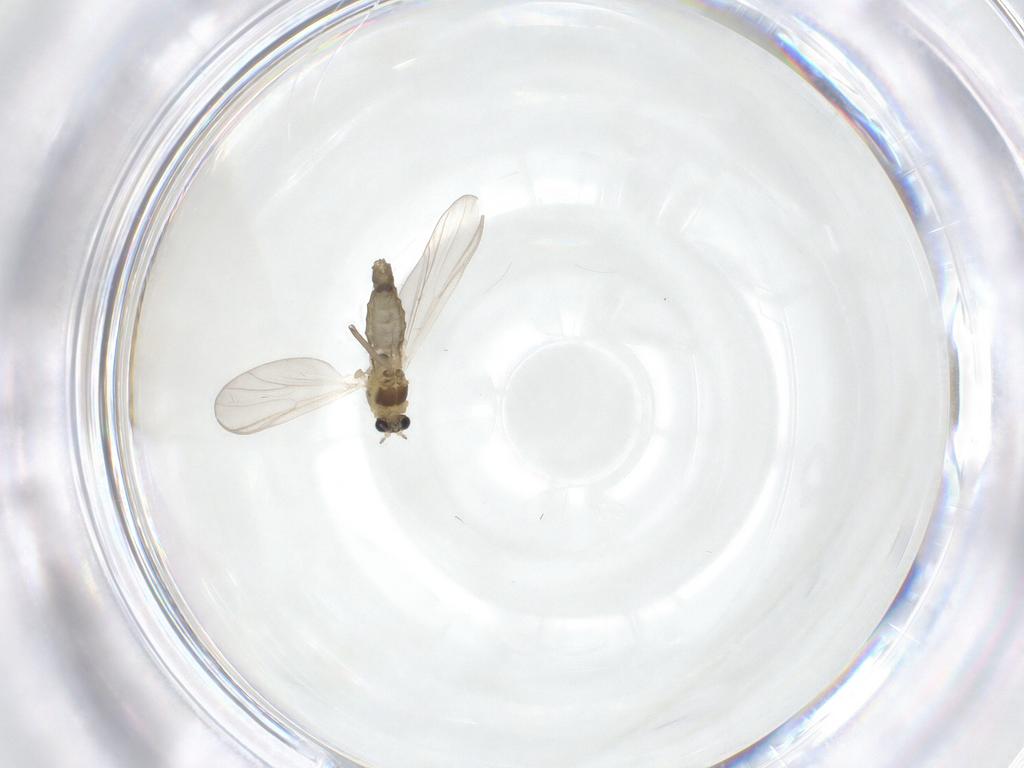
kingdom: Animalia
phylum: Arthropoda
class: Insecta
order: Diptera
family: Chironomidae
